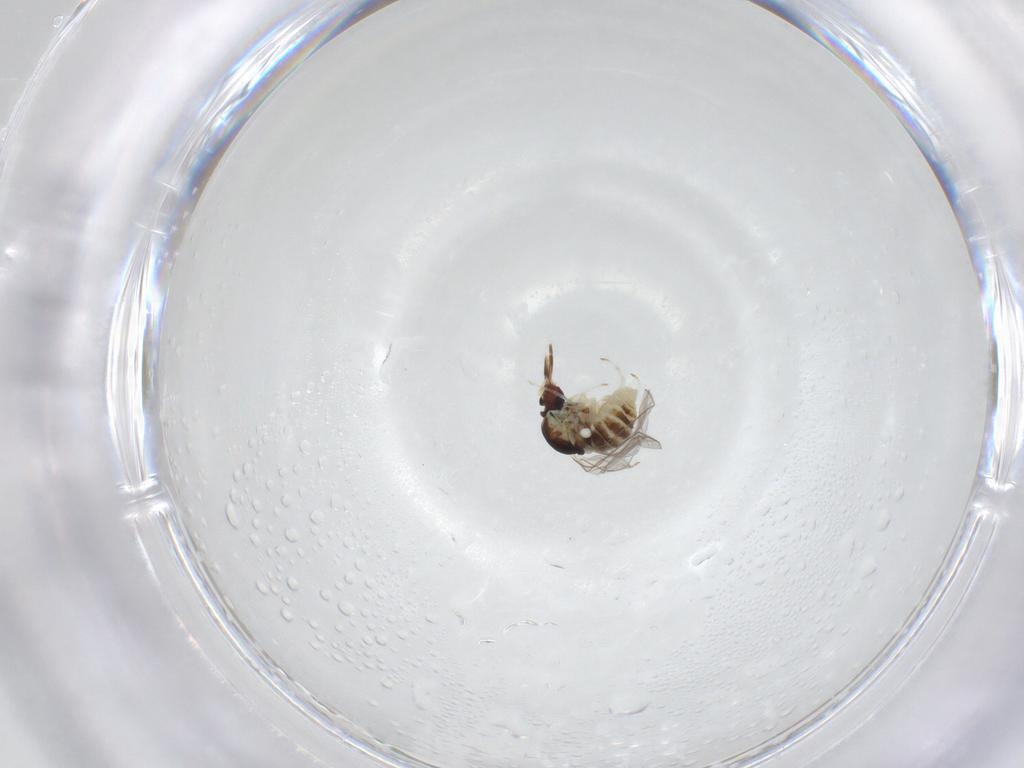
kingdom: Animalia
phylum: Arthropoda
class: Insecta
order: Diptera
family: Mythicomyiidae
